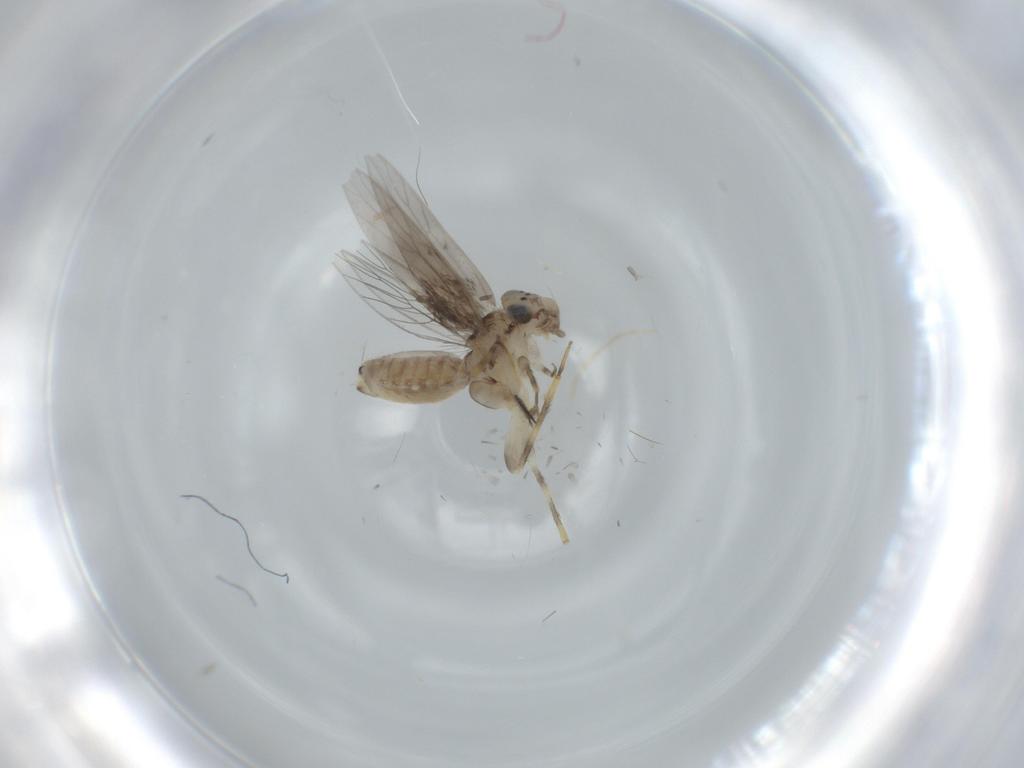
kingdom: Animalia
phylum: Arthropoda
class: Insecta
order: Psocodea
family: Lepidopsocidae
